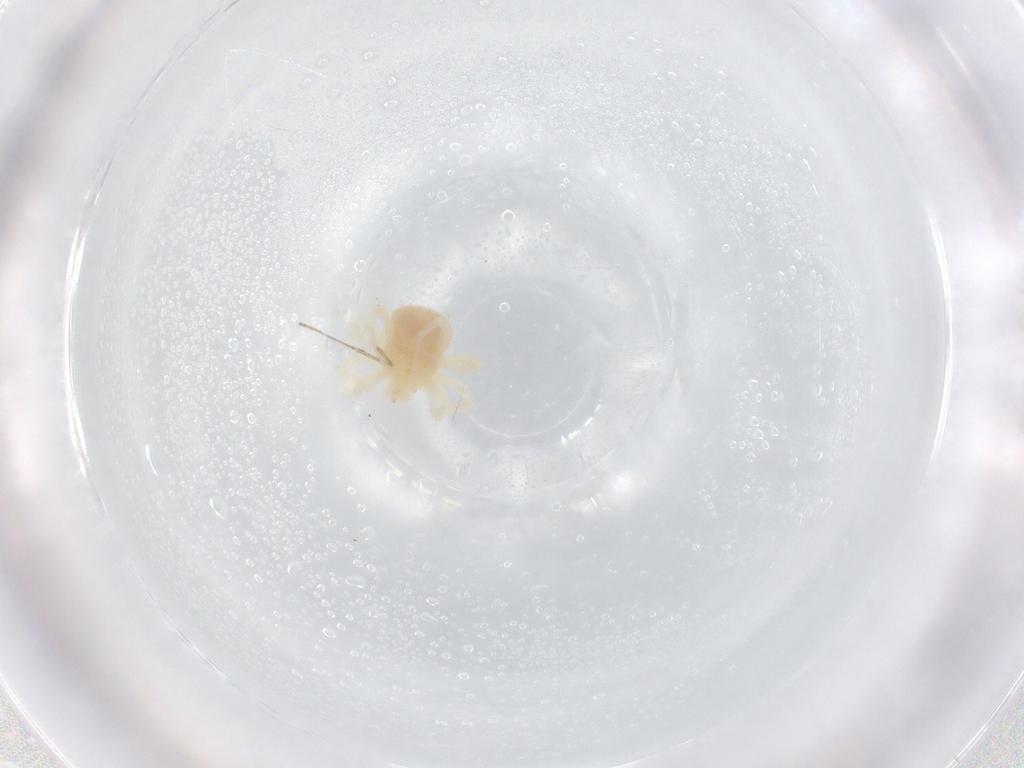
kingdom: Animalia
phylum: Arthropoda
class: Arachnida
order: Trombidiformes
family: Anystidae
